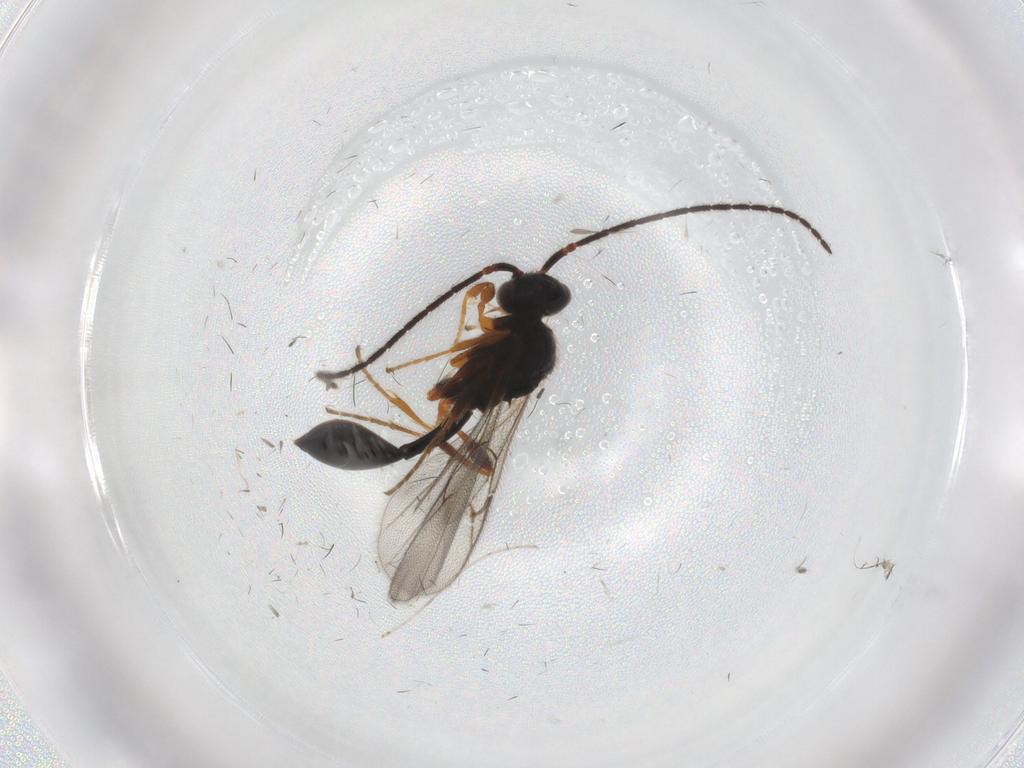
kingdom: Animalia
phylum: Arthropoda
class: Insecta
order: Hymenoptera
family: Diapriidae
